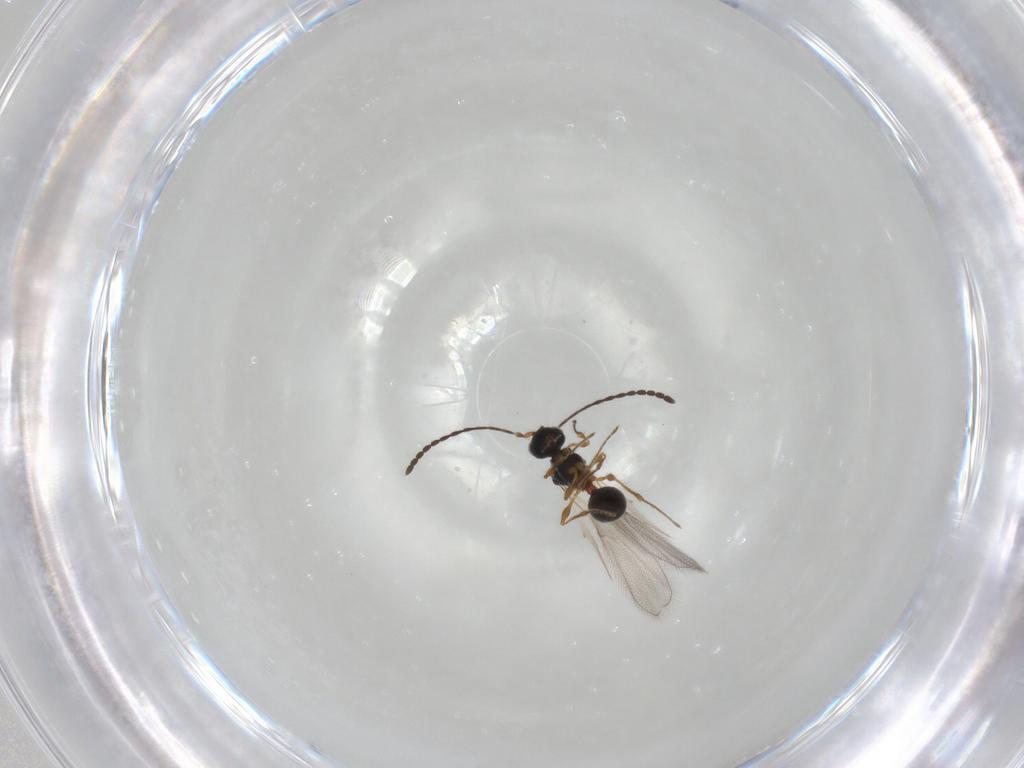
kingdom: Animalia
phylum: Arthropoda
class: Insecta
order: Hymenoptera
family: Diapriidae
